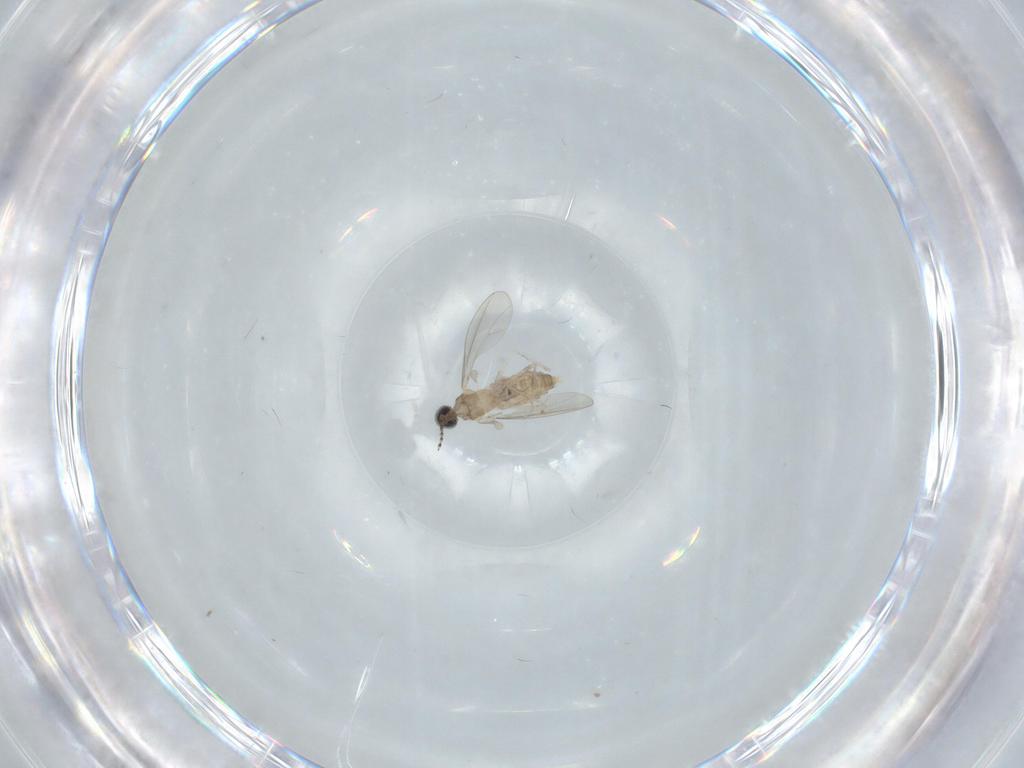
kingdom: Animalia
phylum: Arthropoda
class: Insecta
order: Diptera
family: Cecidomyiidae
